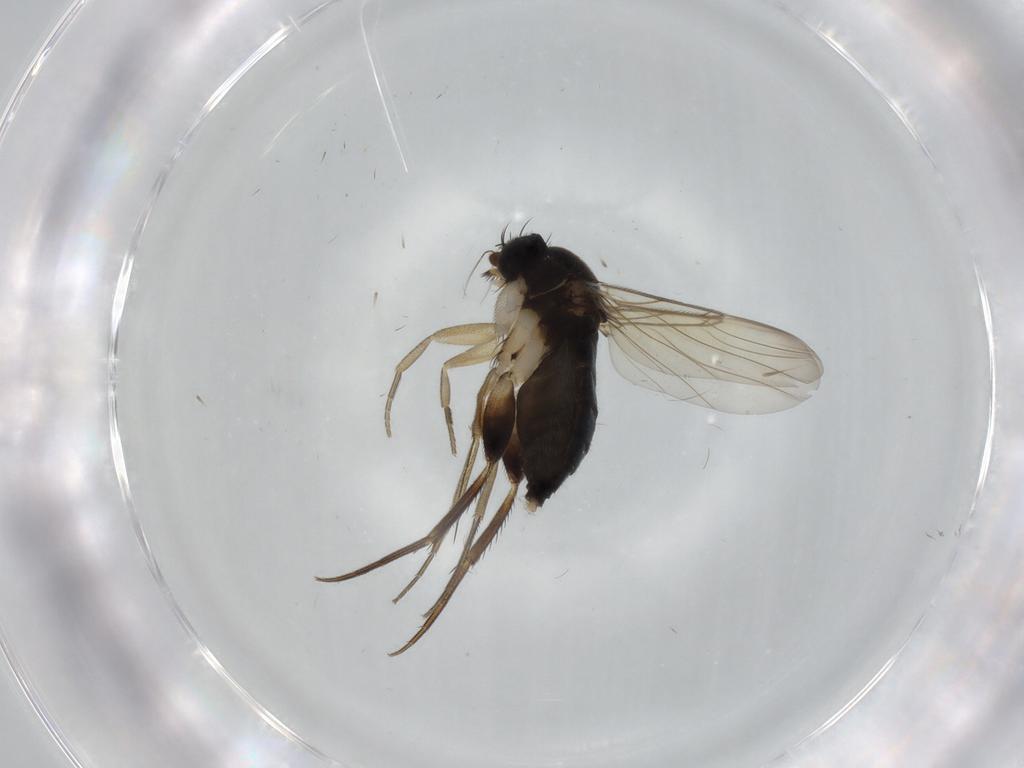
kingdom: Animalia
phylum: Arthropoda
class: Insecta
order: Diptera
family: Phoridae
